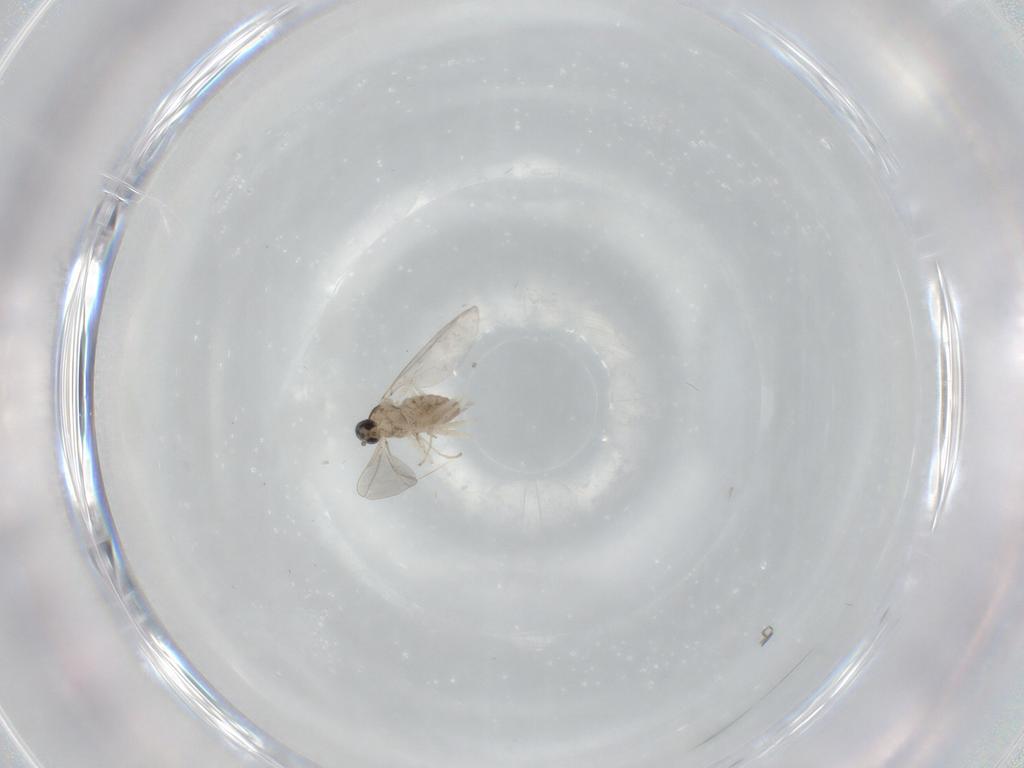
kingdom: Animalia
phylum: Arthropoda
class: Insecta
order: Diptera
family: Cecidomyiidae
